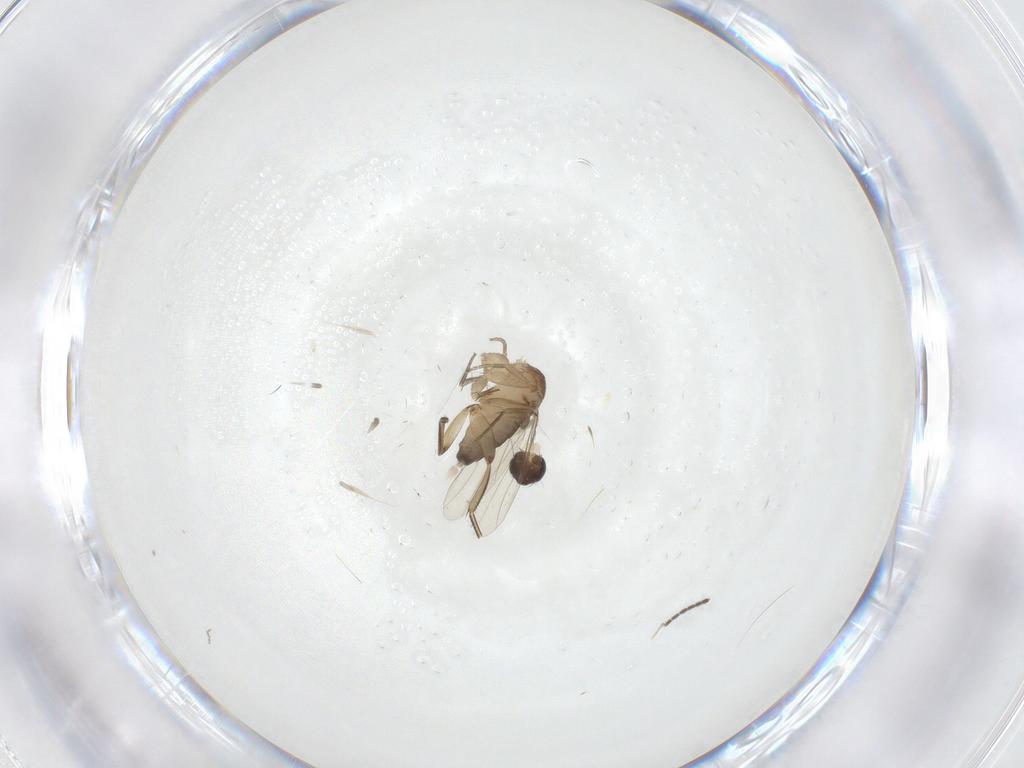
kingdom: Animalia
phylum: Arthropoda
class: Insecta
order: Diptera
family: Phoridae
